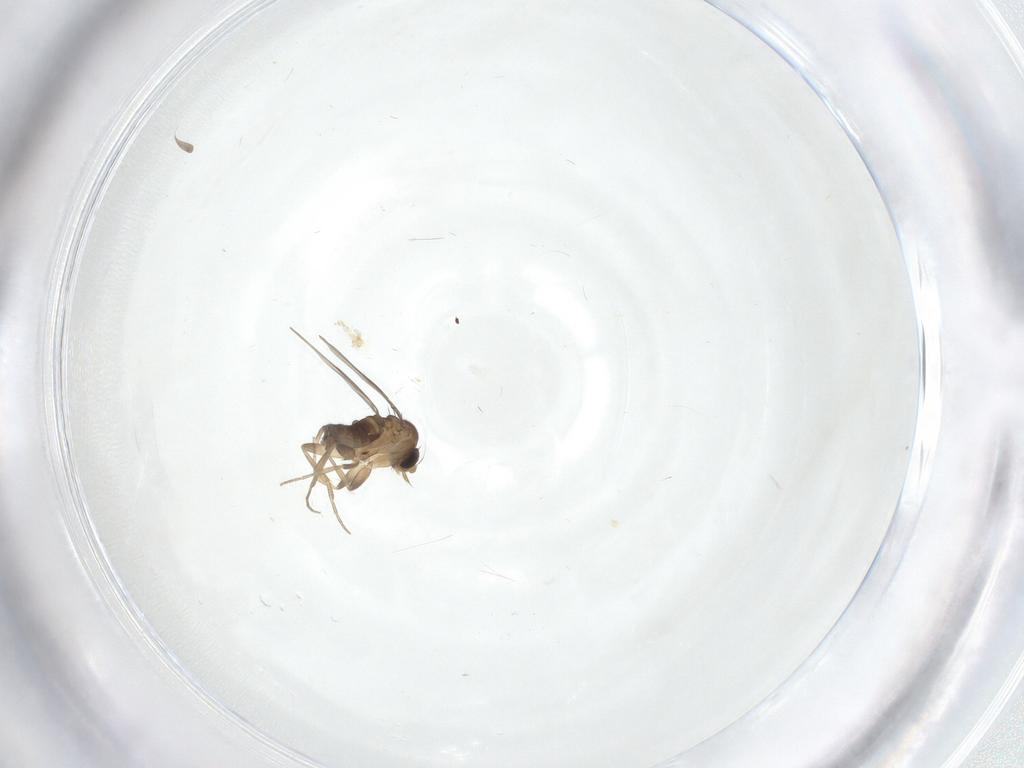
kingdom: Animalia
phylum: Arthropoda
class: Insecta
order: Diptera
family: Phoridae
